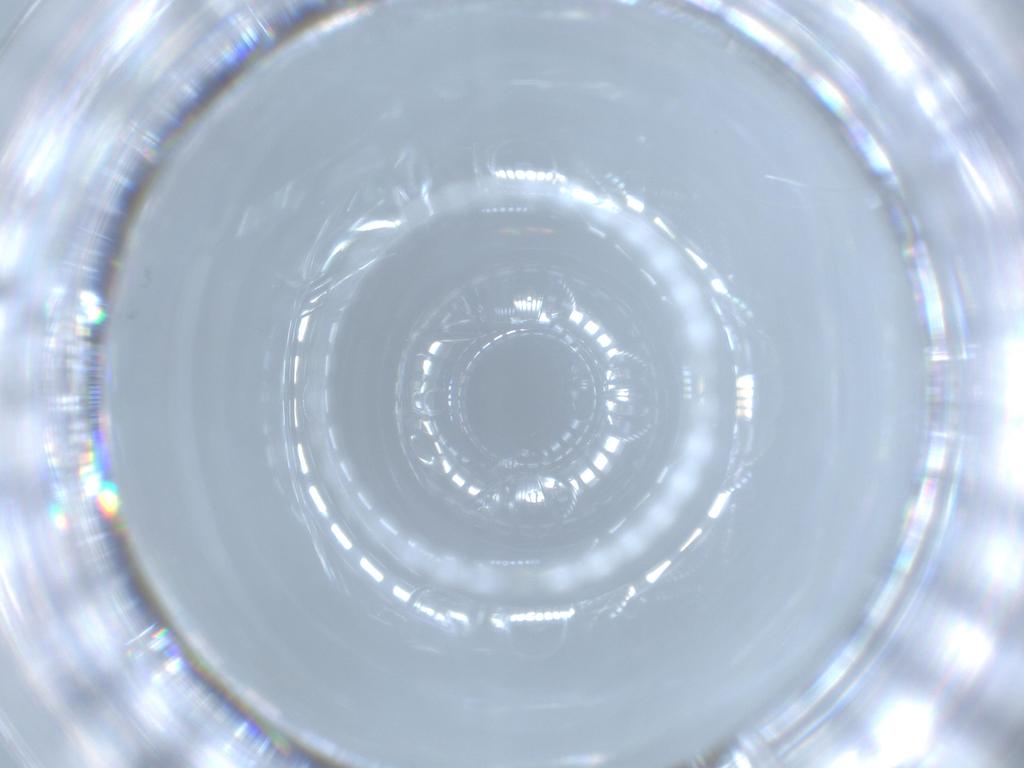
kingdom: Animalia
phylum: Arthropoda
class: Insecta
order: Diptera
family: Cecidomyiidae
